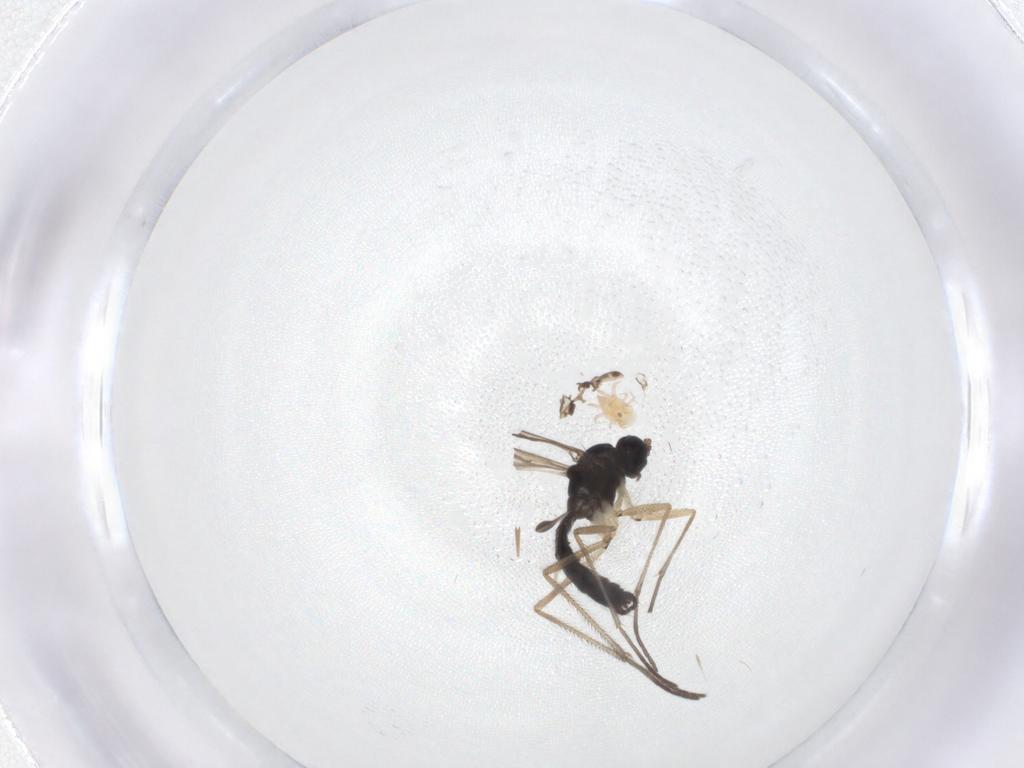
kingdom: Animalia
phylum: Arthropoda
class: Insecta
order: Diptera
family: Sciaridae
